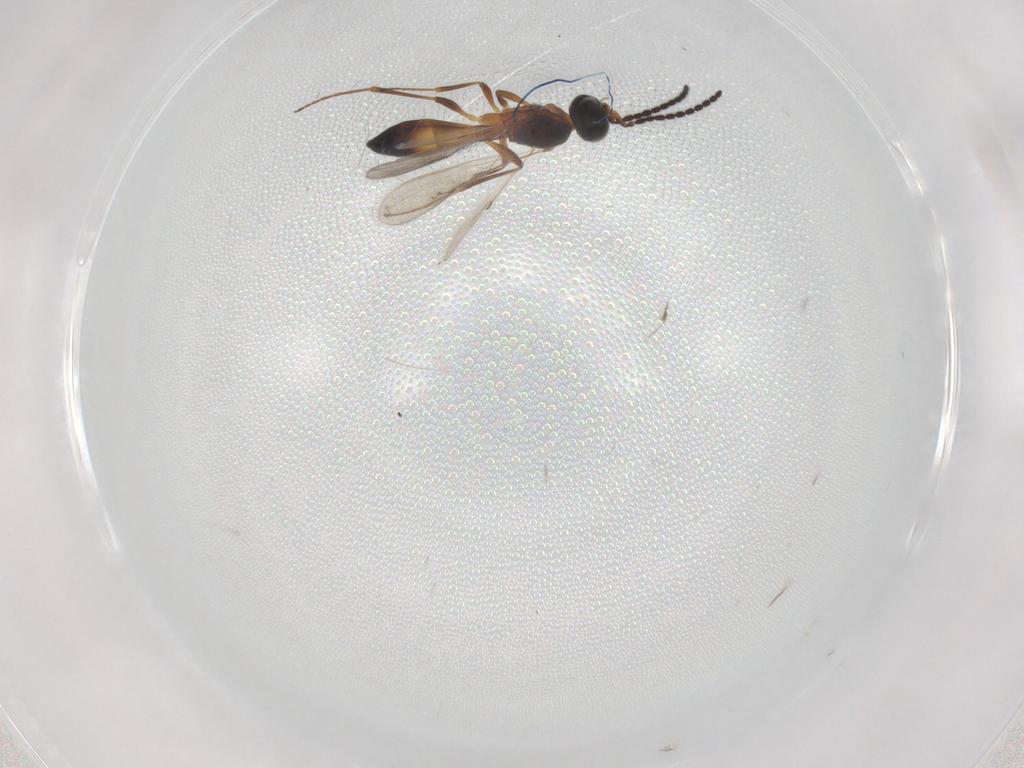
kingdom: Animalia
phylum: Arthropoda
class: Insecta
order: Hymenoptera
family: Scelionidae
